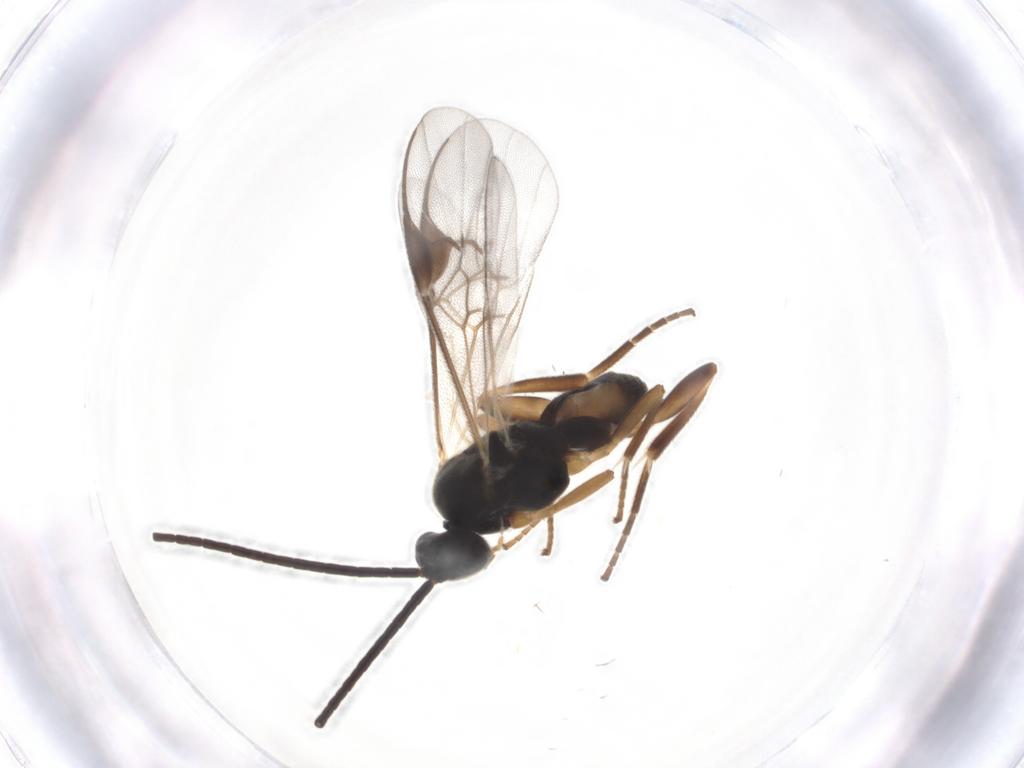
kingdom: Animalia
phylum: Arthropoda
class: Insecta
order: Hymenoptera
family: Braconidae
